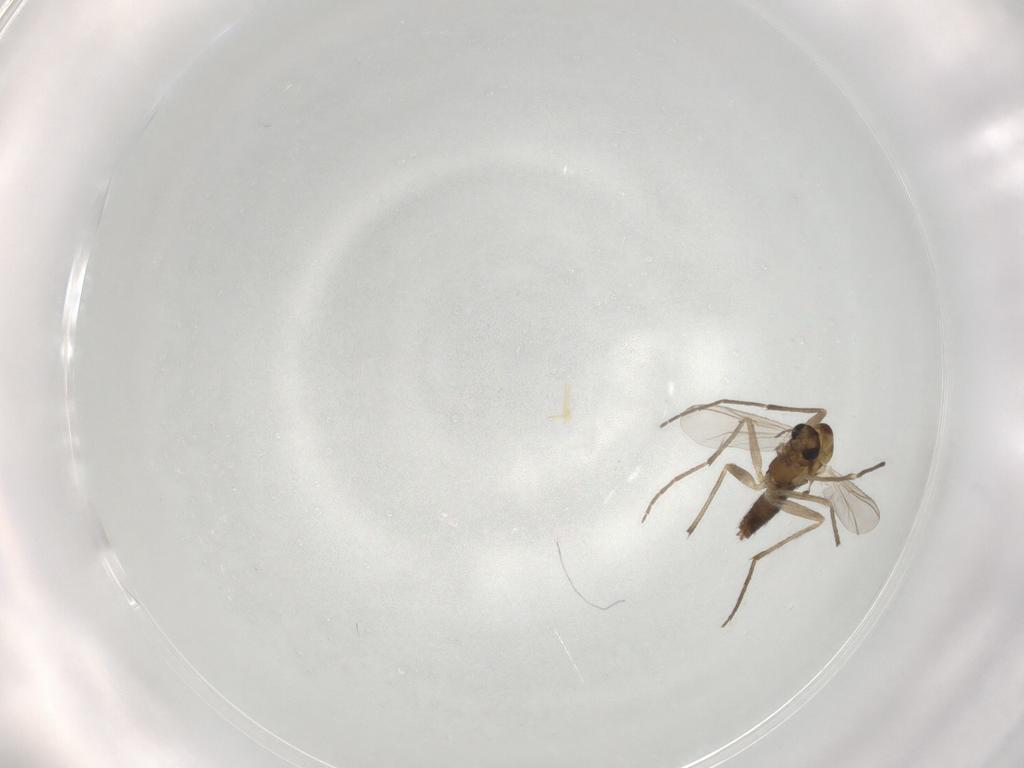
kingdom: Animalia
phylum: Arthropoda
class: Insecta
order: Diptera
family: Chironomidae
